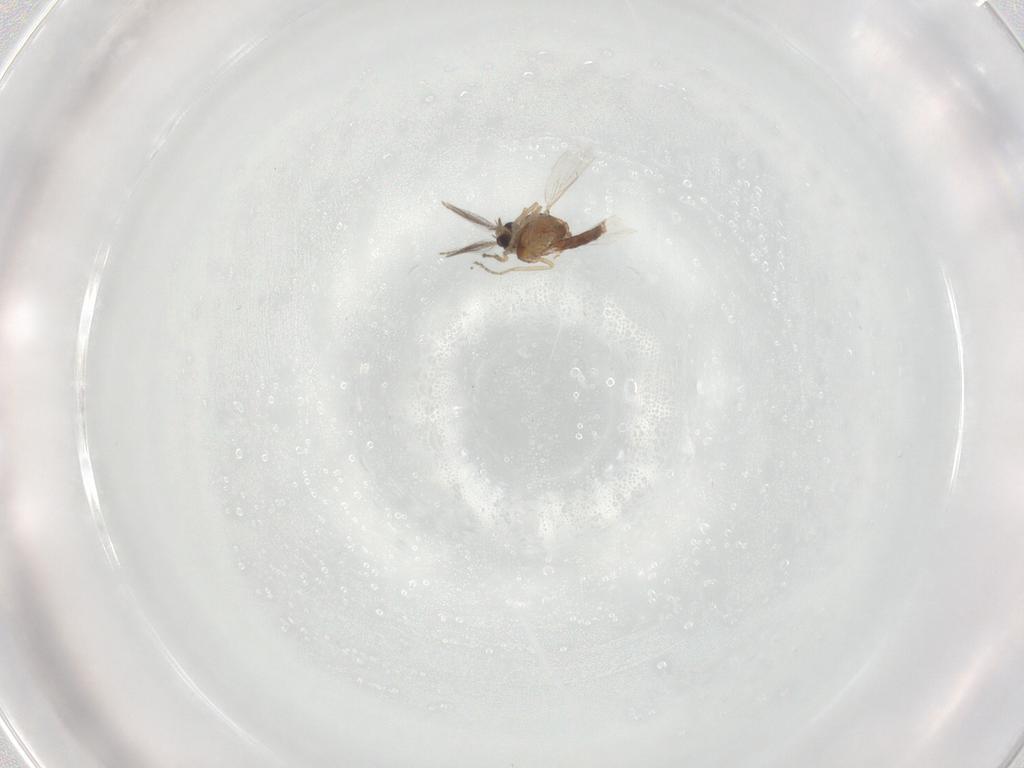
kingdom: Animalia
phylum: Arthropoda
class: Insecta
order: Diptera
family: Ceratopogonidae
